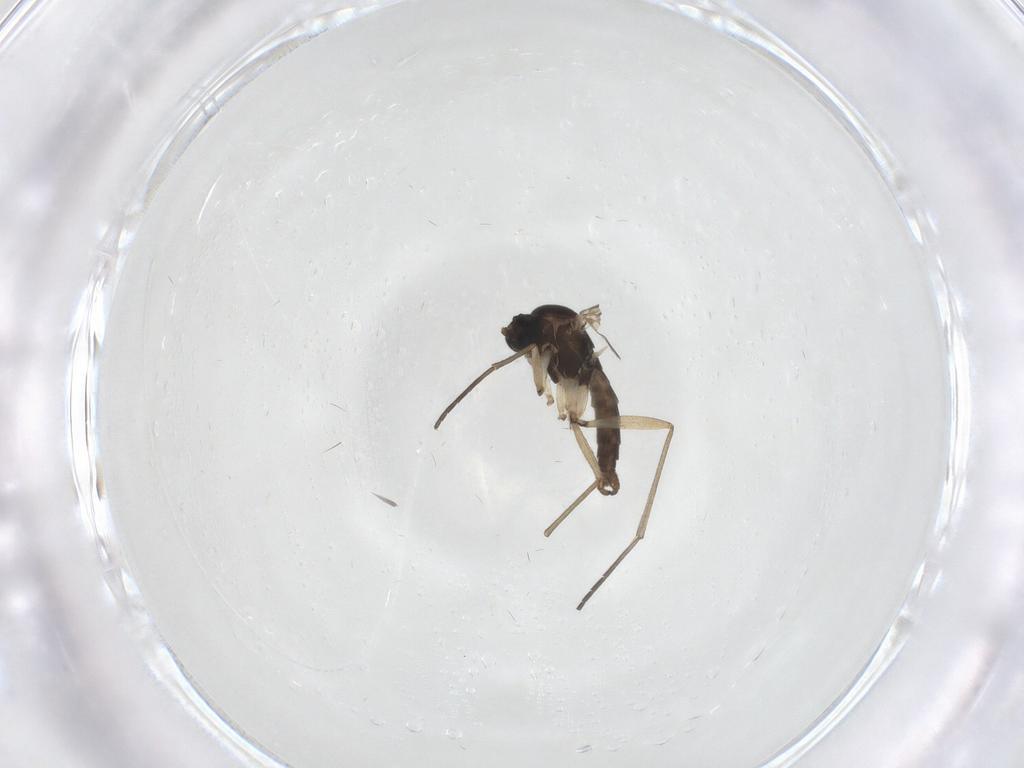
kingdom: Animalia
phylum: Arthropoda
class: Insecta
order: Diptera
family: Sciaridae
